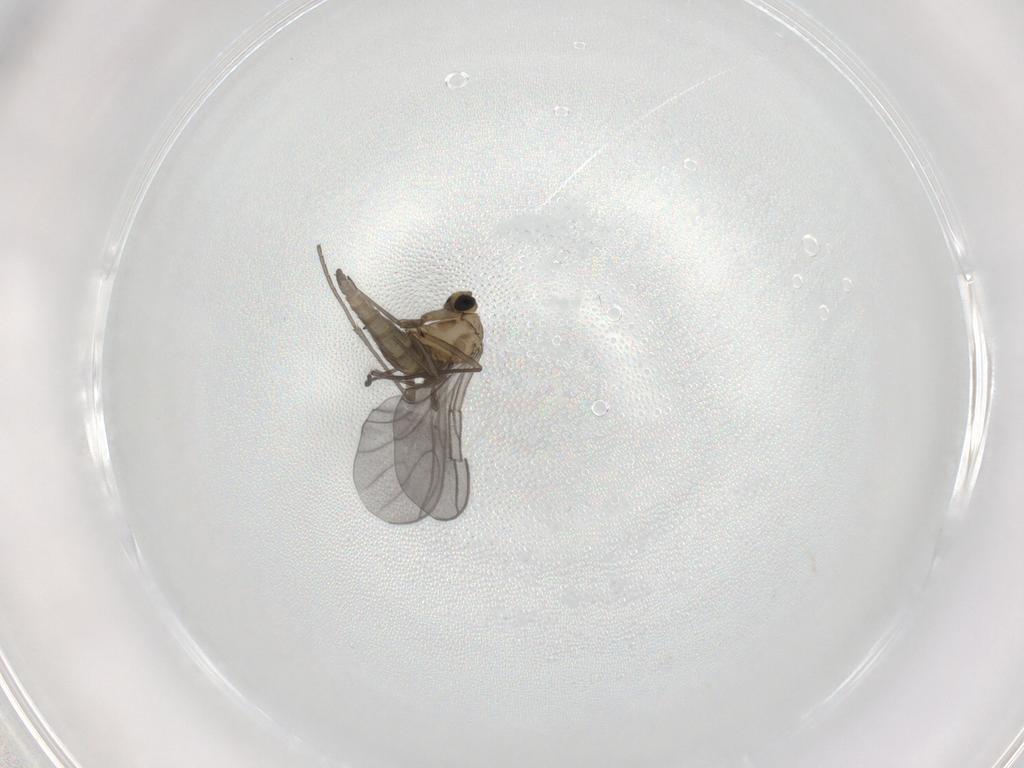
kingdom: Animalia
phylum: Arthropoda
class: Insecta
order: Diptera
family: Sciaridae
